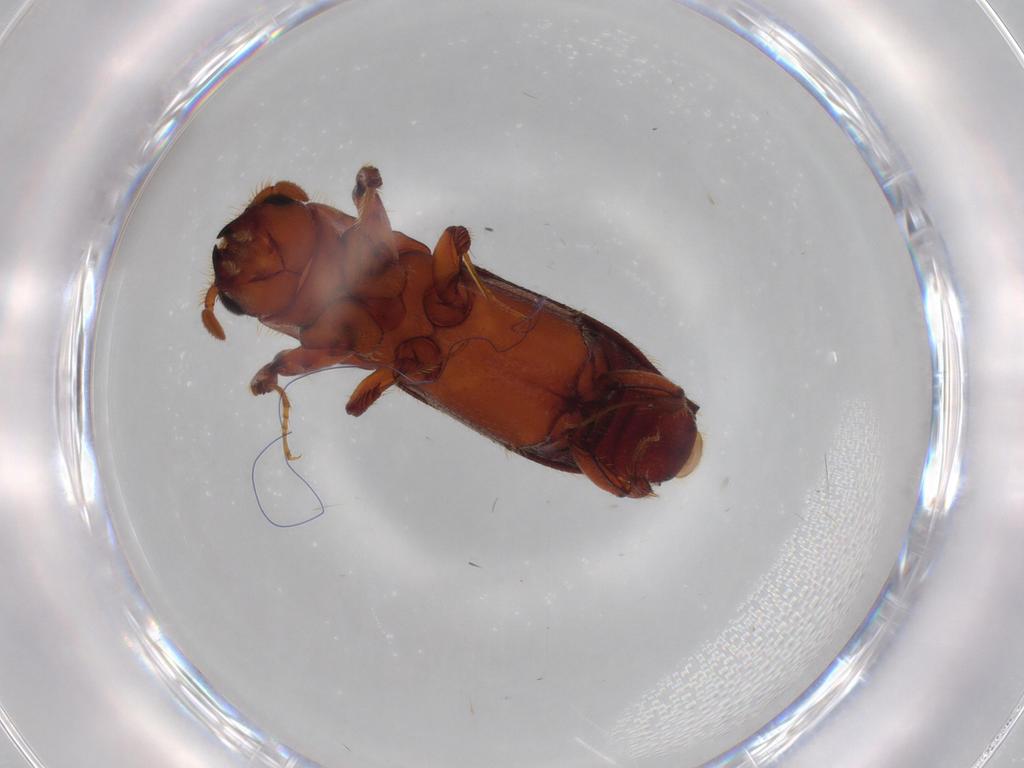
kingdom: Animalia
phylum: Arthropoda
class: Insecta
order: Coleoptera
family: Curculionidae
